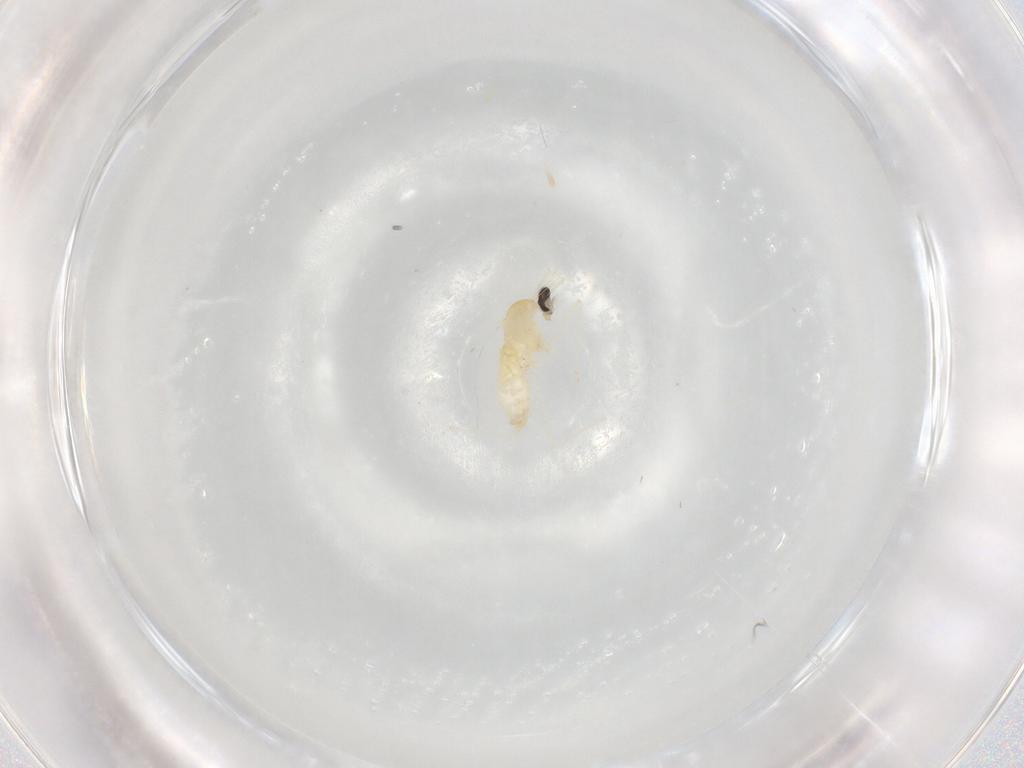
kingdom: Animalia
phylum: Arthropoda
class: Insecta
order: Diptera
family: Cecidomyiidae
